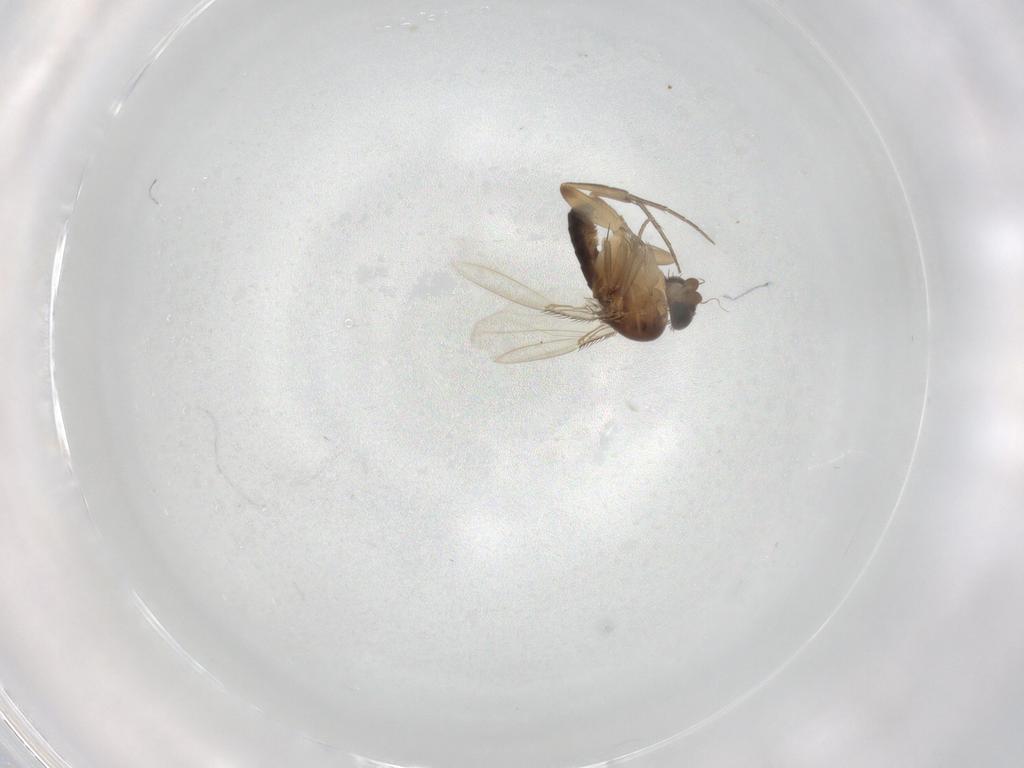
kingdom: Animalia
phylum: Arthropoda
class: Insecta
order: Diptera
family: Phoridae
